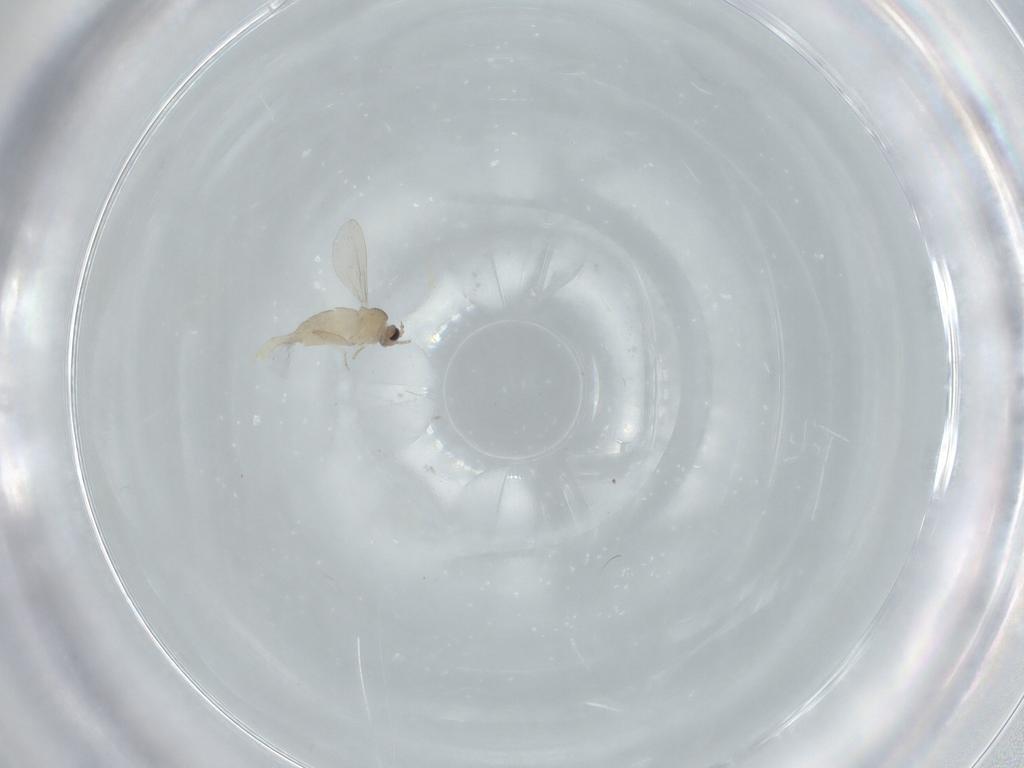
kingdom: Animalia
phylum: Arthropoda
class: Insecta
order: Diptera
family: Cecidomyiidae
